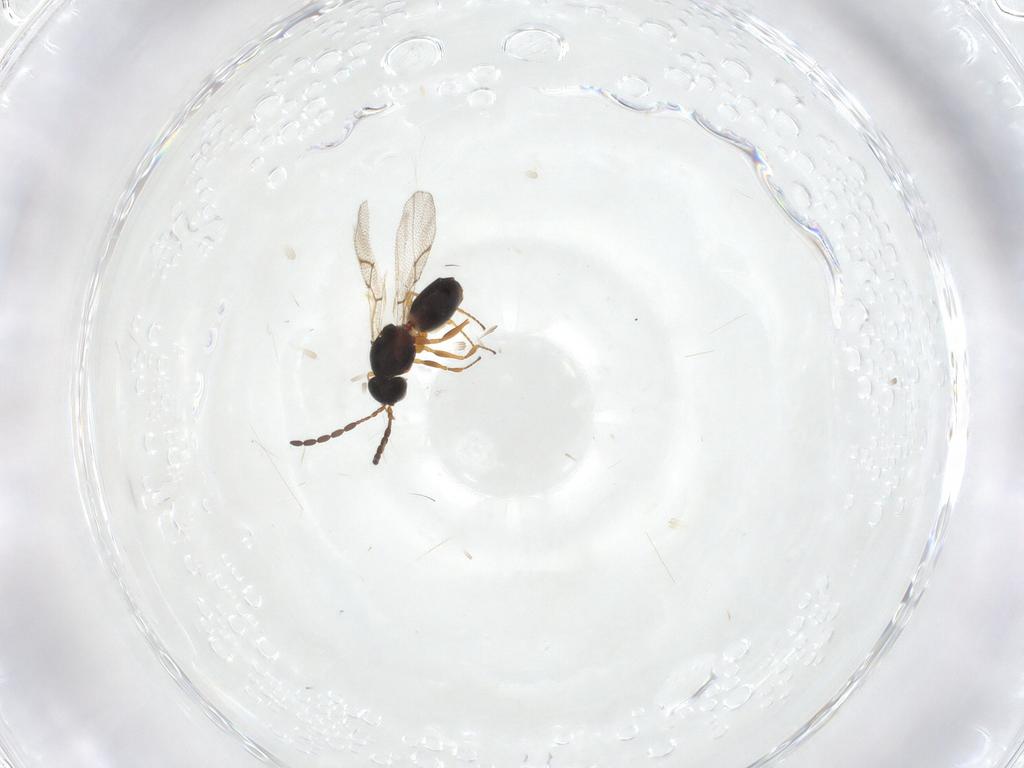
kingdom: Animalia
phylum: Arthropoda
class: Insecta
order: Hymenoptera
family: Figitidae
